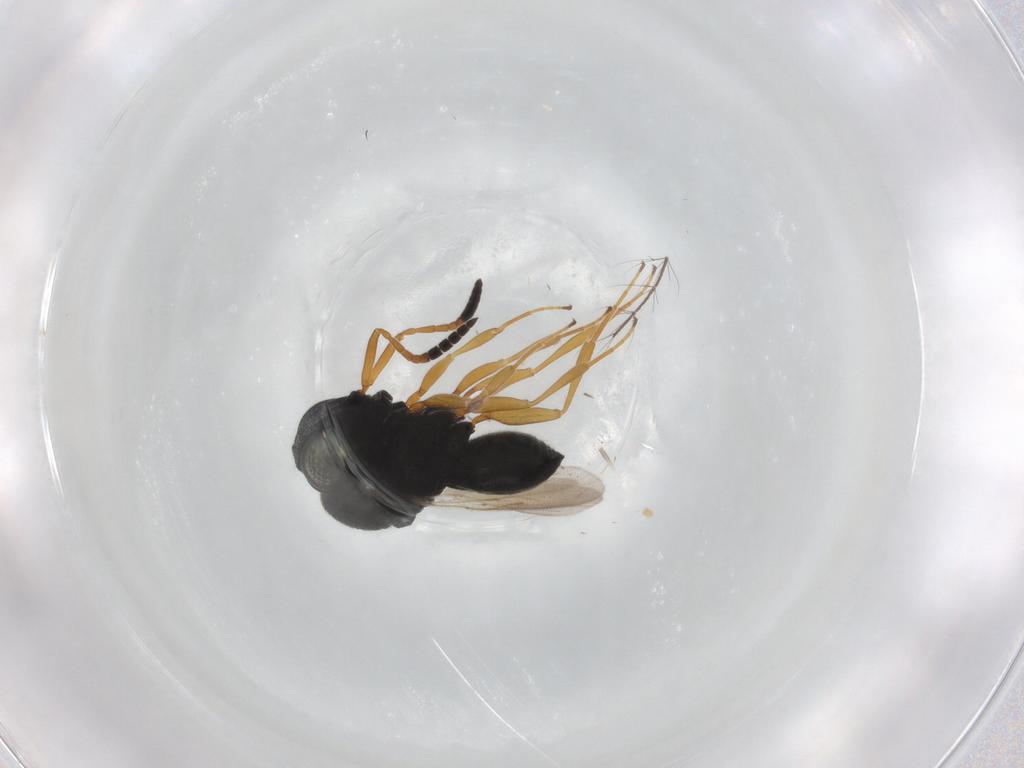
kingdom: Animalia
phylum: Arthropoda
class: Insecta
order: Hymenoptera
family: Scelionidae
